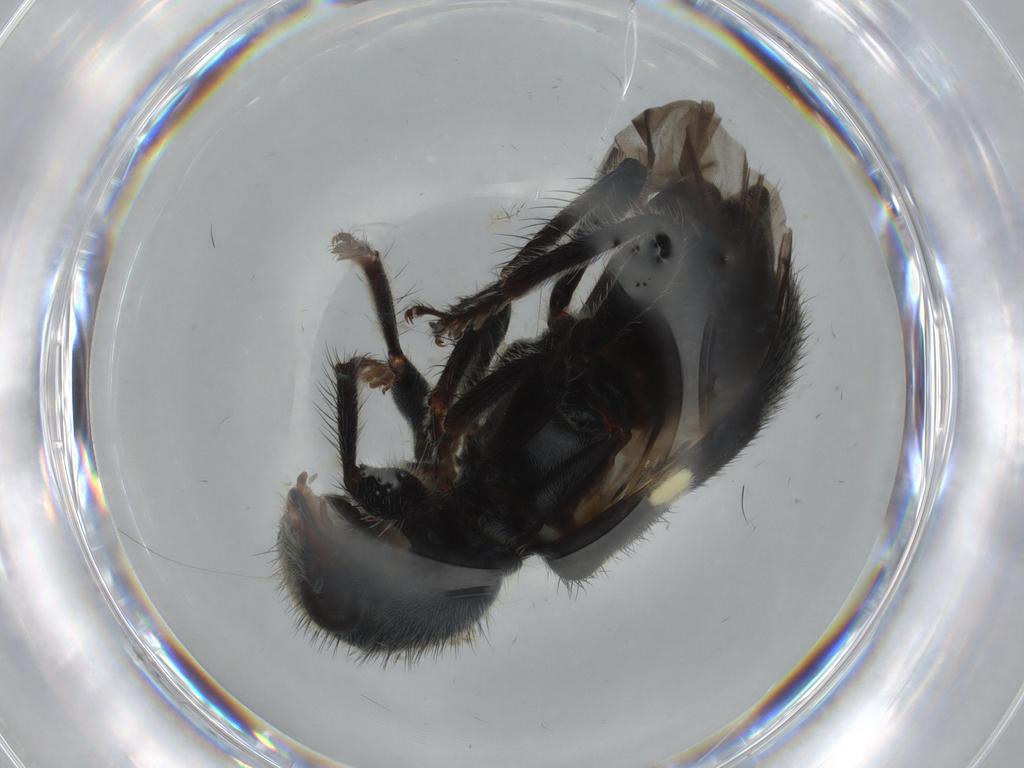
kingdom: Animalia
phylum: Arthropoda
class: Insecta
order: Coleoptera
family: Cleridae
